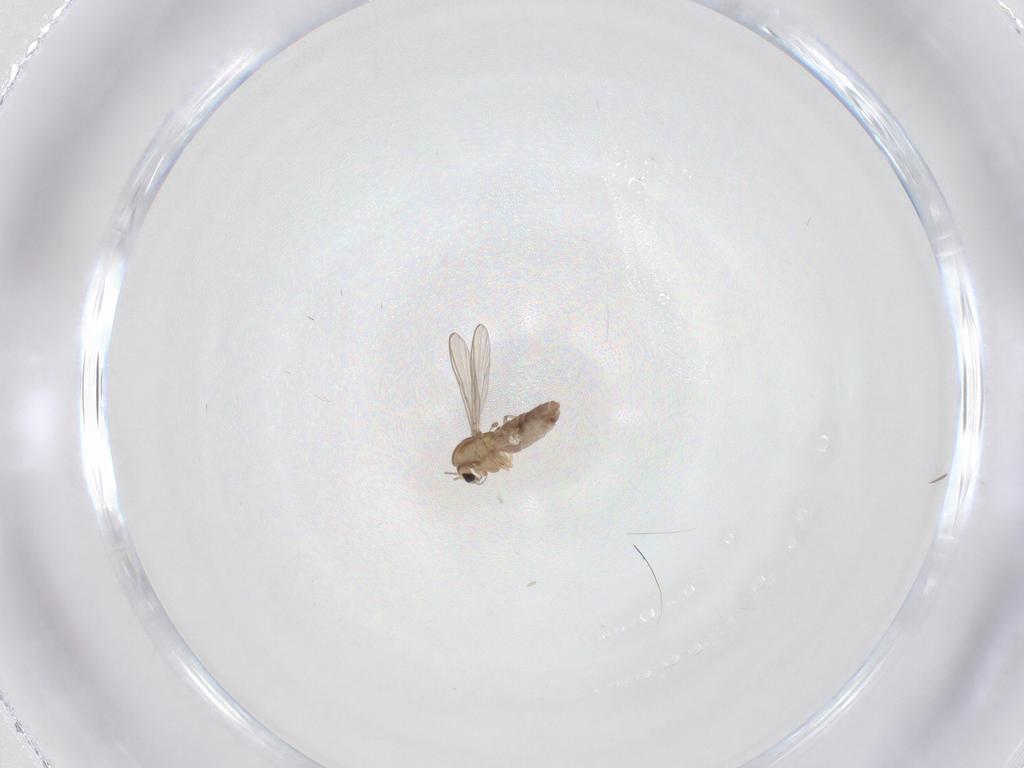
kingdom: Animalia
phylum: Arthropoda
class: Insecta
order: Diptera
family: Chironomidae
